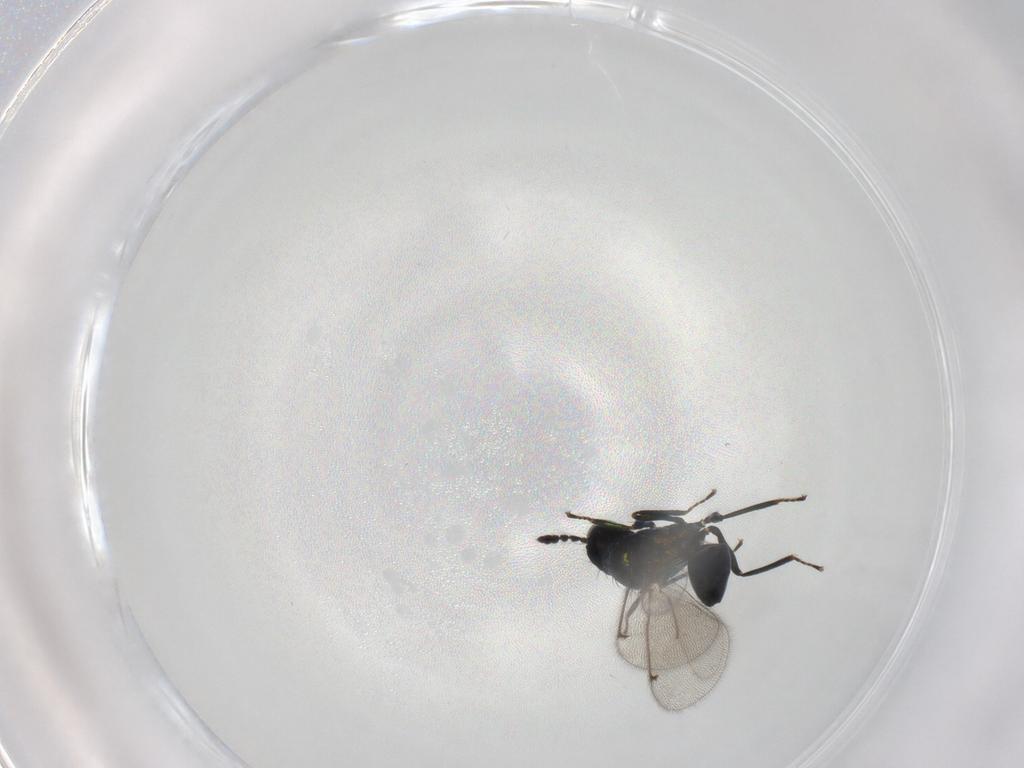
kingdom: Animalia
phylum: Arthropoda
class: Insecta
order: Hymenoptera
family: Eulophidae
